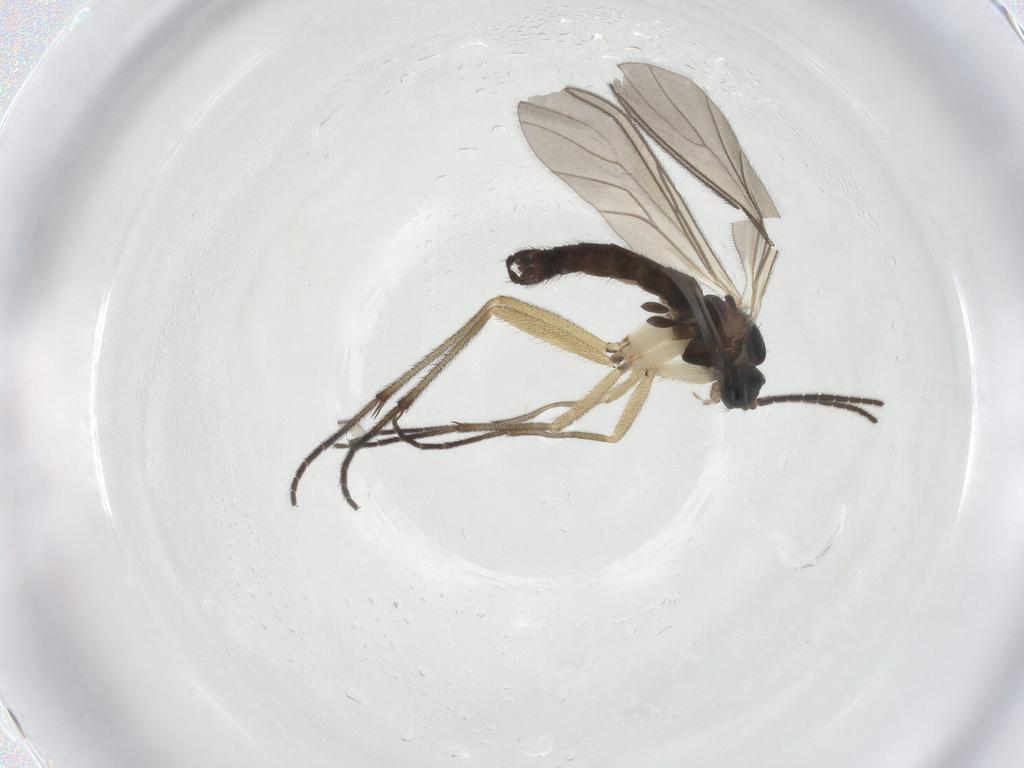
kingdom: Animalia
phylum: Arthropoda
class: Insecta
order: Diptera
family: Sciaridae
